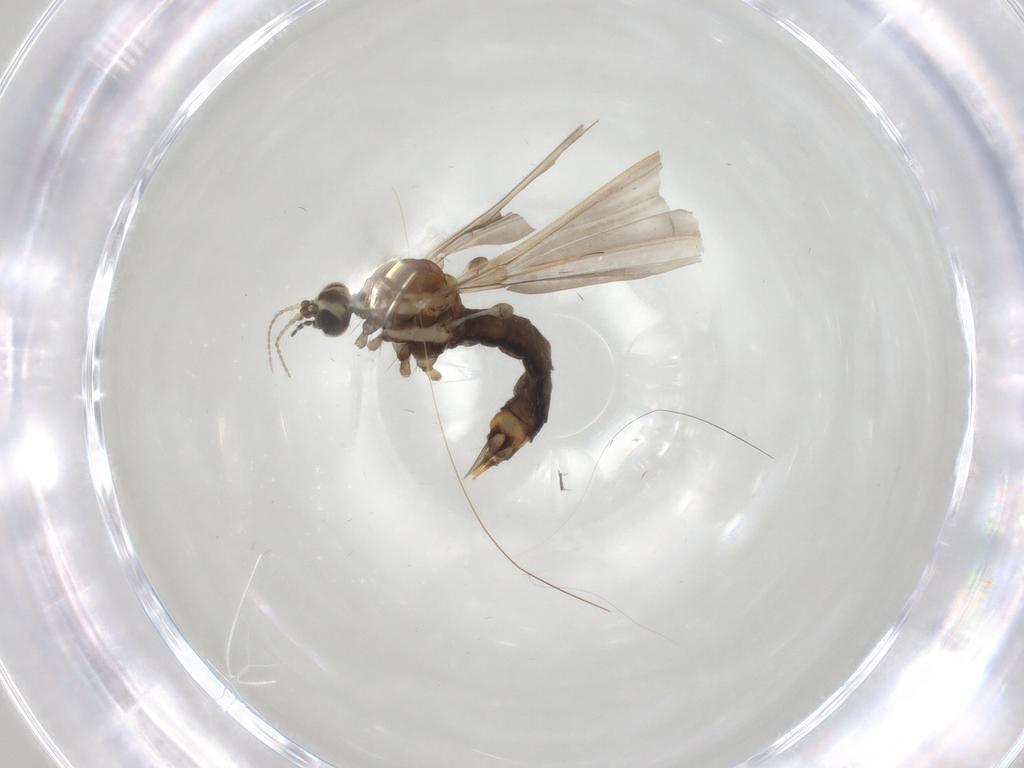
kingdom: Animalia
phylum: Arthropoda
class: Insecta
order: Diptera
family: Limoniidae
